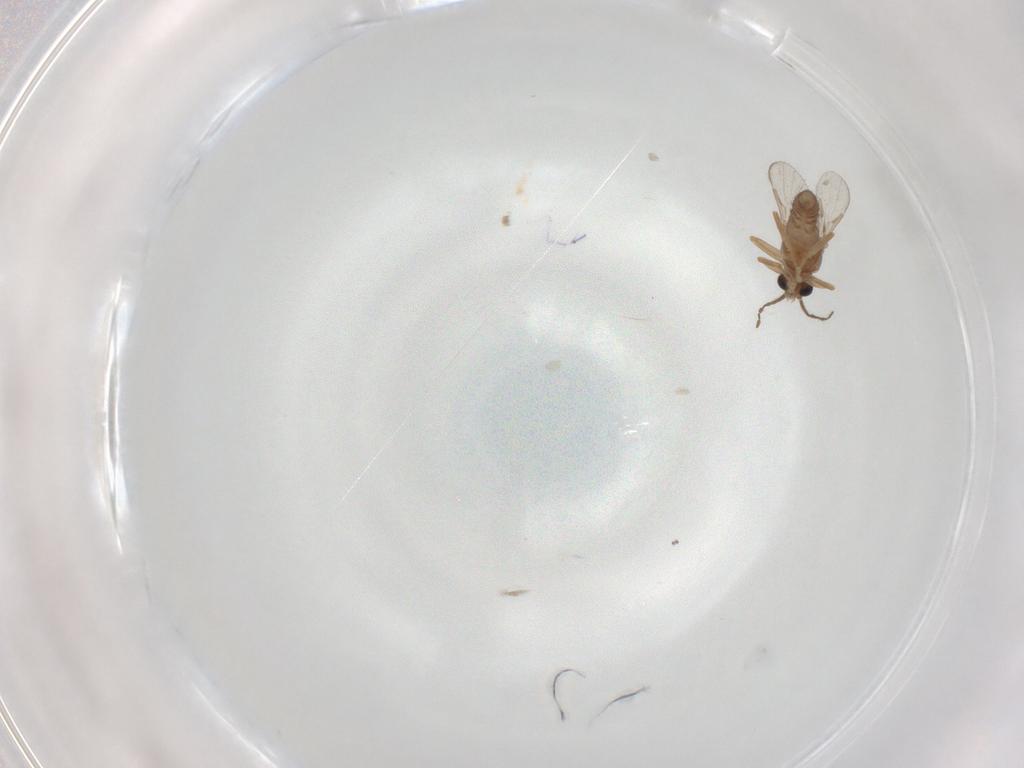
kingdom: Animalia
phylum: Arthropoda
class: Insecta
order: Diptera
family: Ceratopogonidae
